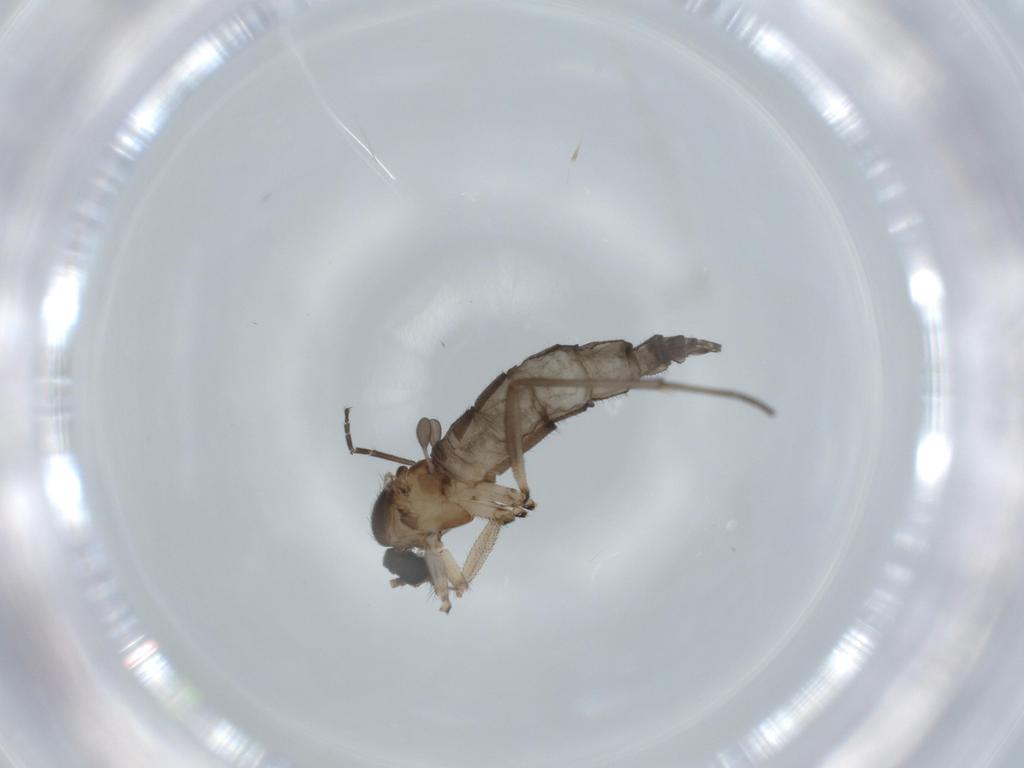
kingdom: Animalia
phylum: Arthropoda
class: Insecta
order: Diptera
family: Sciaridae
